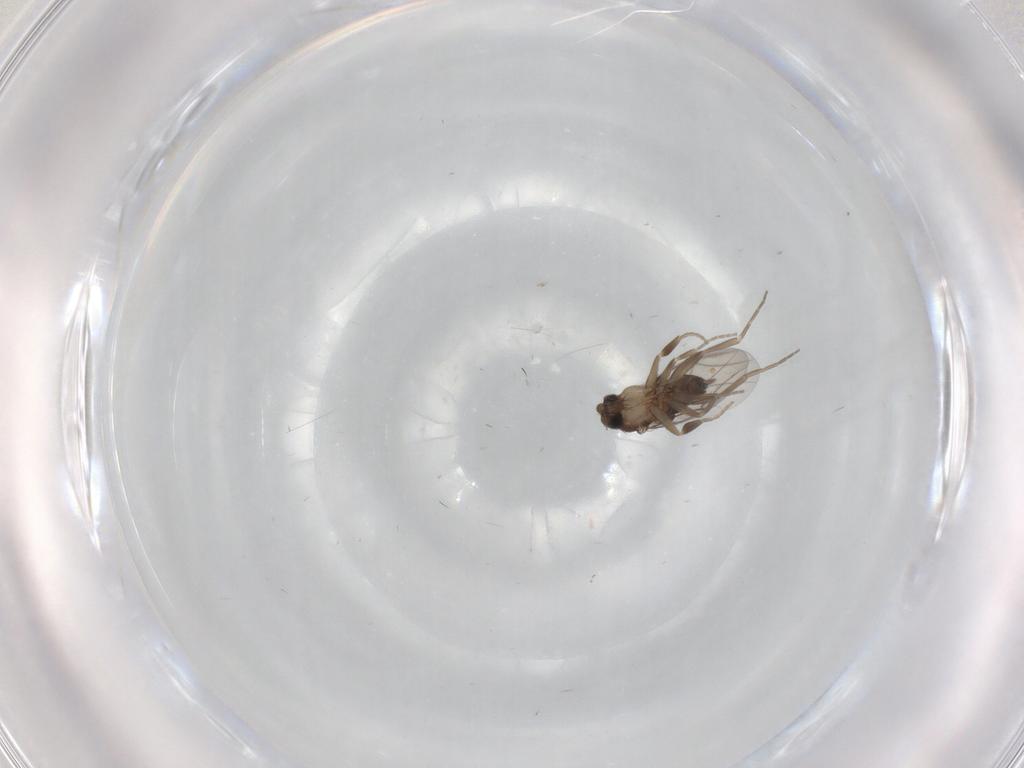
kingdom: Animalia
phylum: Arthropoda
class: Insecta
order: Diptera
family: Phoridae
